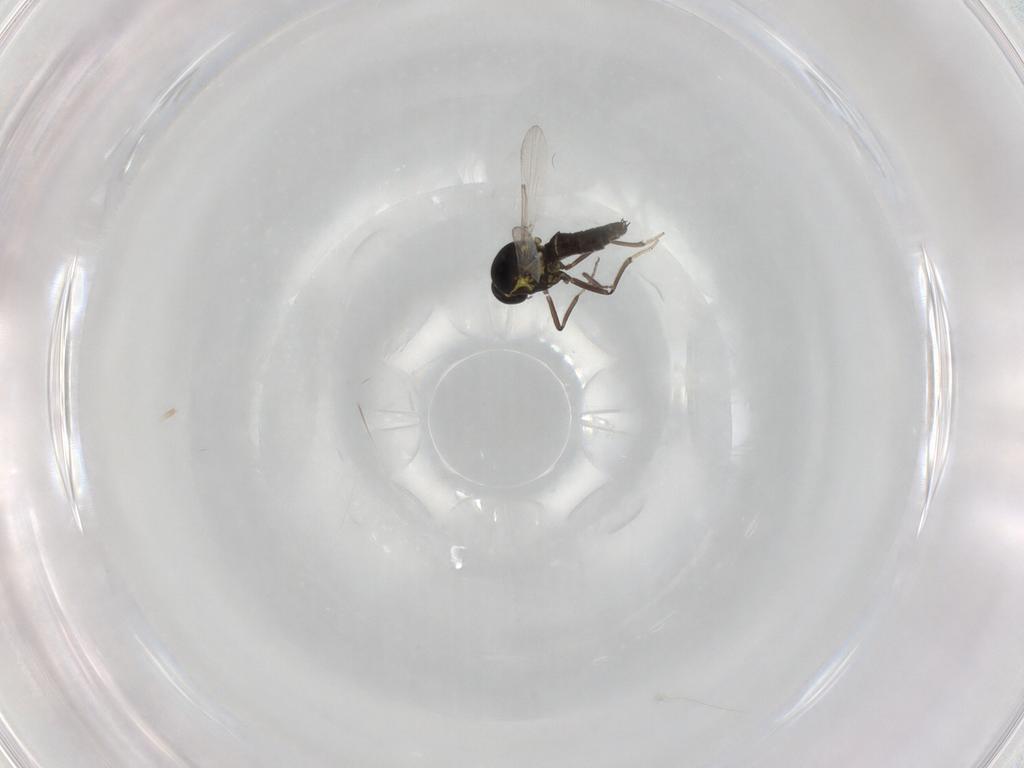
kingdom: Animalia
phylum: Arthropoda
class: Insecta
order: Diptera
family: Ceratopogonidae
